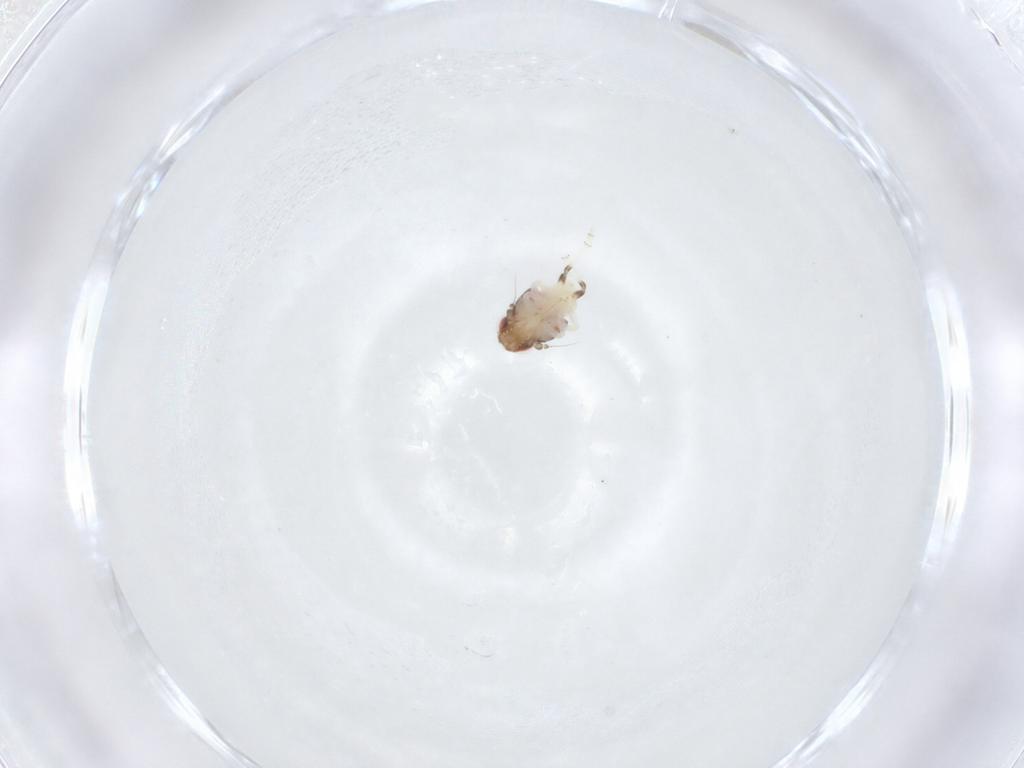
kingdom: Animalia
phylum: Arthropoda
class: Insecta
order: Hemiptera
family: Nogodinidae
